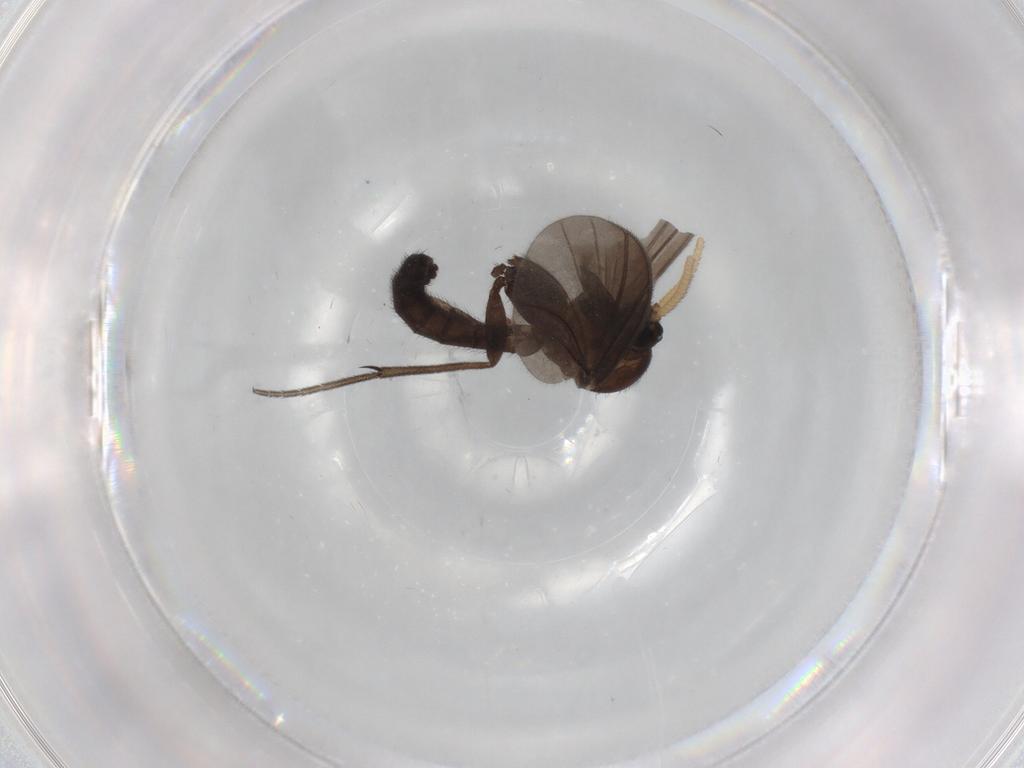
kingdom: Animalia
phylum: Arthropoda
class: Insecta
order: Diptera
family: Mycetophilidae
